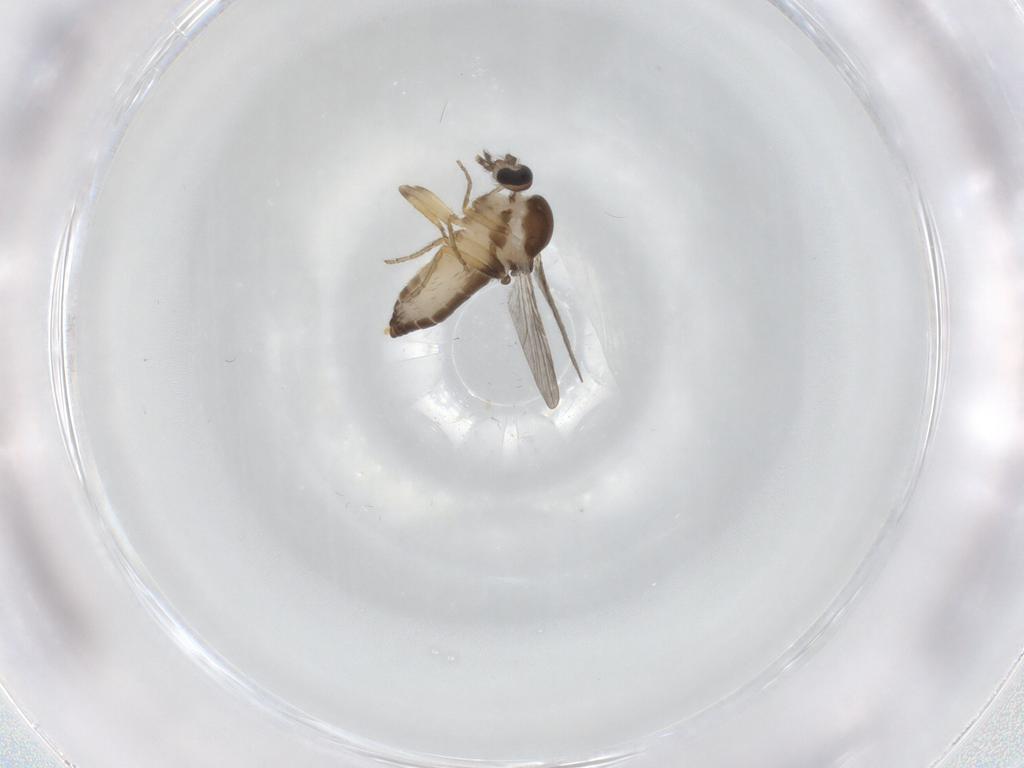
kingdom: Animalia
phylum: Arthropoda
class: Insecta
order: Diptera
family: Ceratopogonidae
